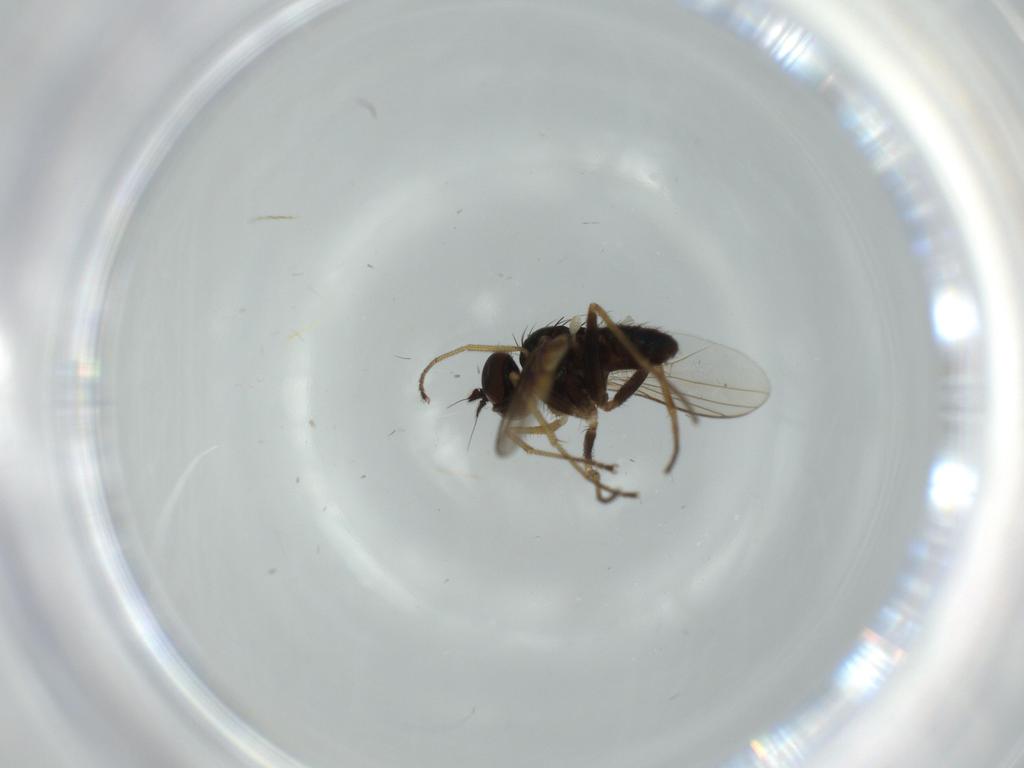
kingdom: Animalia
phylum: Arthropoda
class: Insecta
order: Diptera
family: Dolichopodidae
